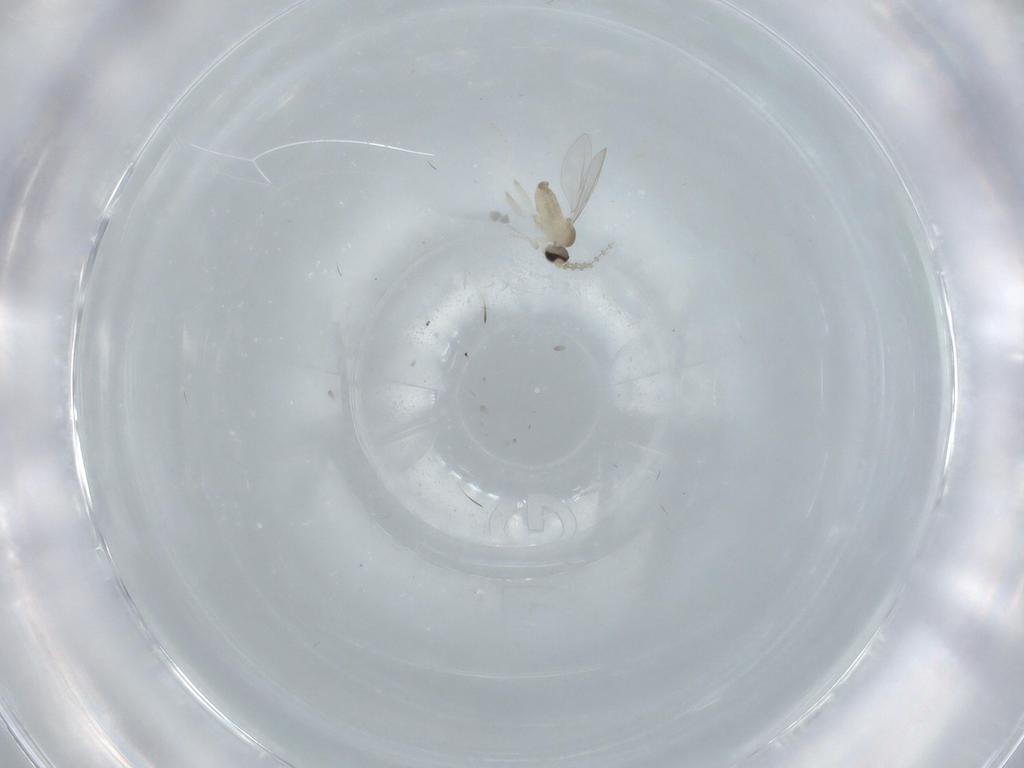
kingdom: Animalia
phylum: Arthropoda
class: Insecta
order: Diptera
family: Cecidomyiidae
